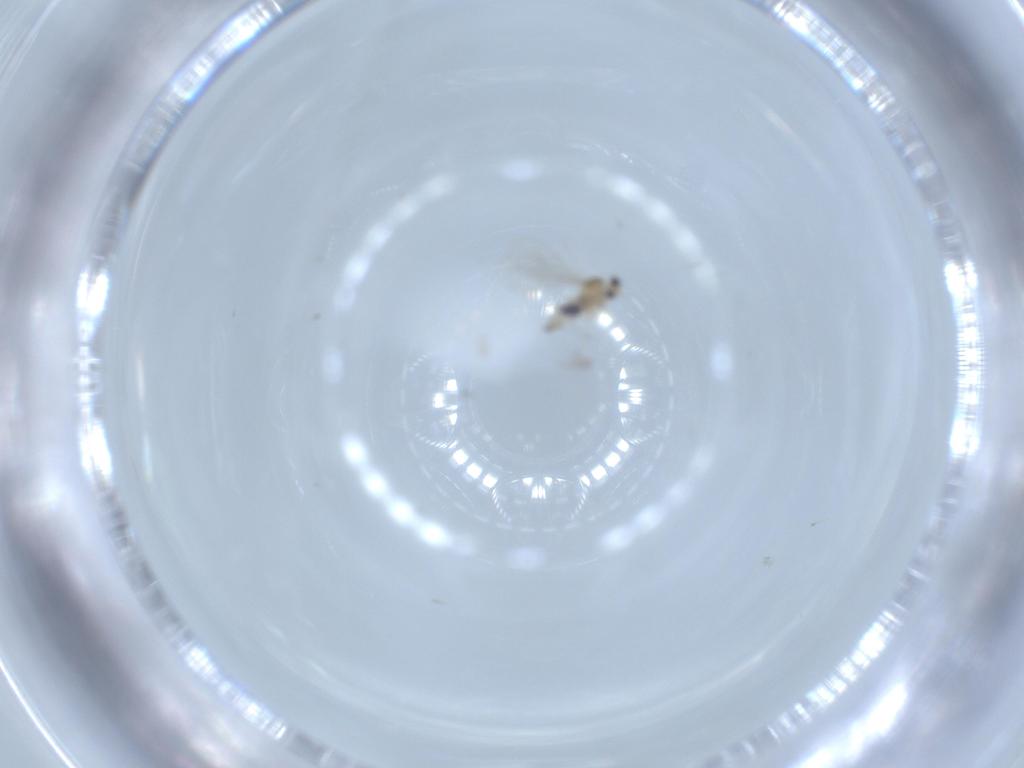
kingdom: Animalia
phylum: Arthropoda
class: Insecta
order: Diptera
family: Cecidomyiidae
